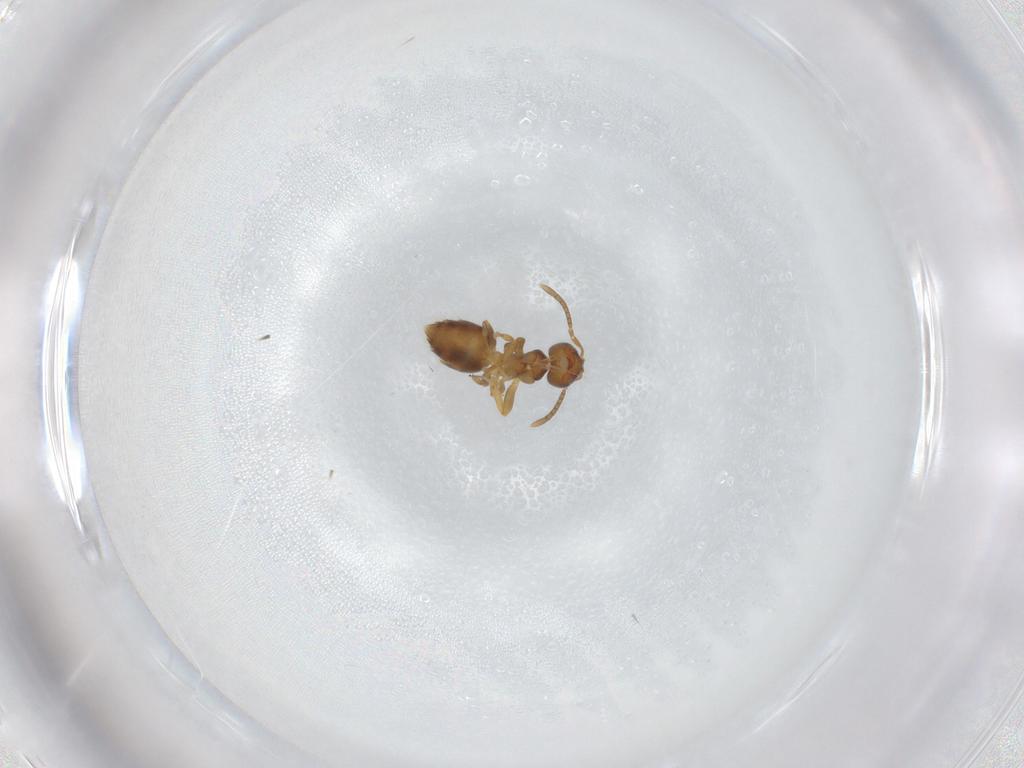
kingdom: Animalia
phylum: Arthropoda
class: Insecta
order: Hymenoptera
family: Formicidae
